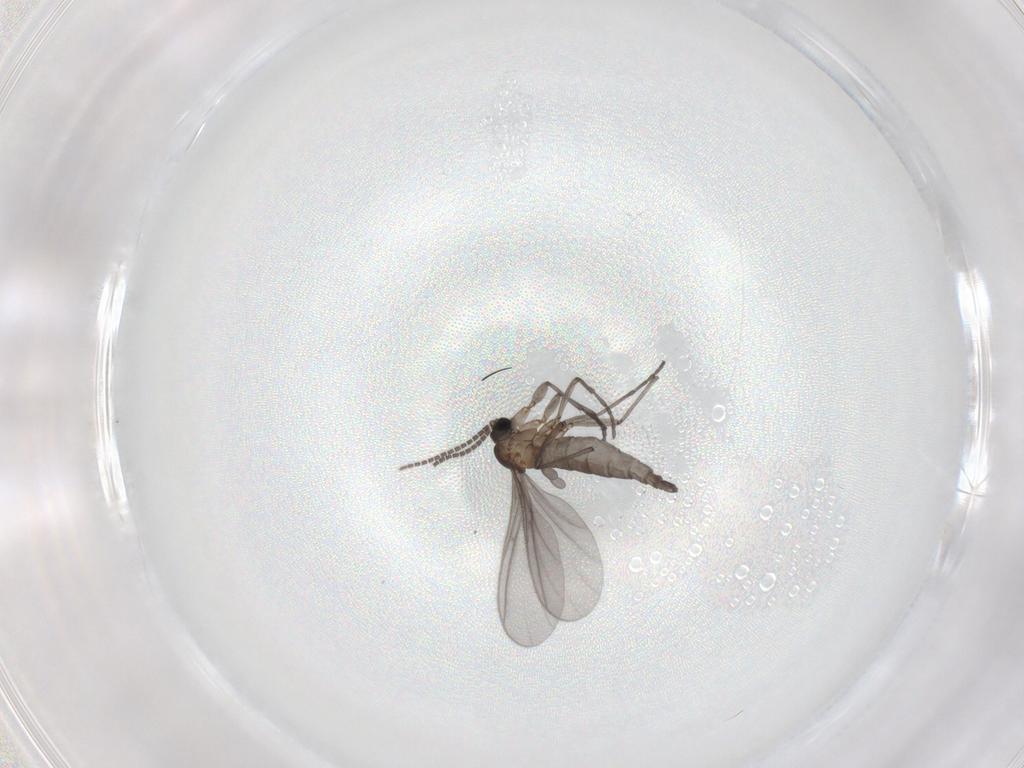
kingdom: Animalia
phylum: Arthropoda
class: Insecta
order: Diptera
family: Sciaridae
